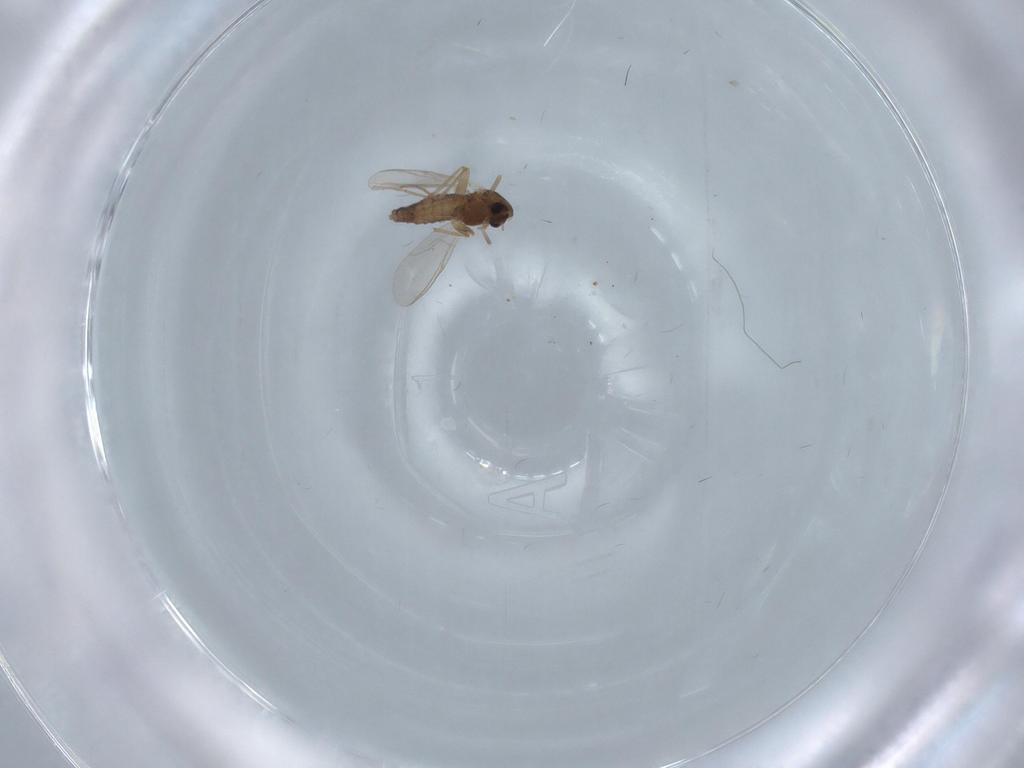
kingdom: Animalia
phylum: Arthropoda
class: Insecta
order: Diptera
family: Chironomidae
